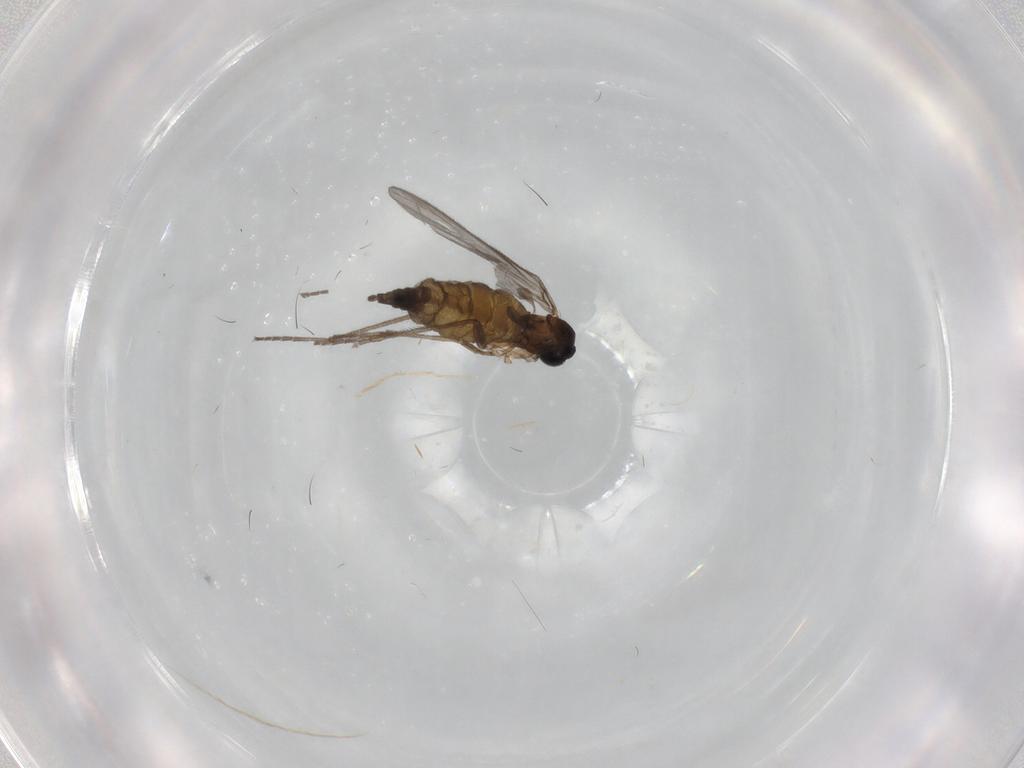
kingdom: Animalia
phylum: Arthropoda
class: Insecta
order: Diptera
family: Sciaridae
